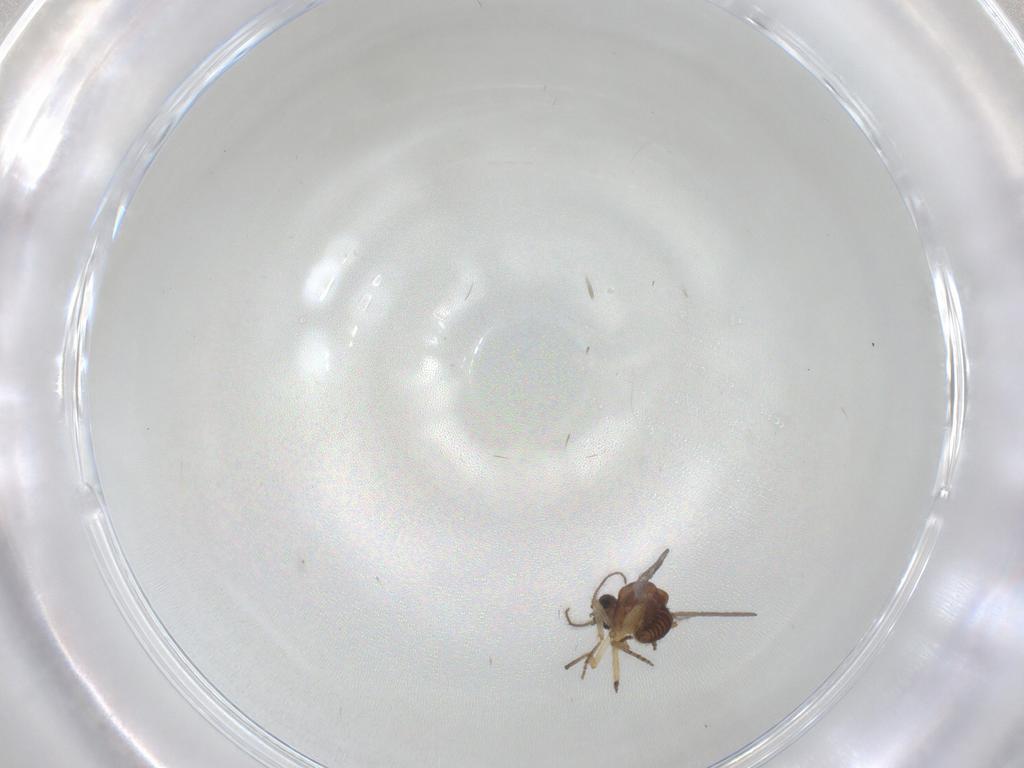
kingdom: Animalia
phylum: Arthropoda
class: Insecta
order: Diptera
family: Ceratopogonidae
